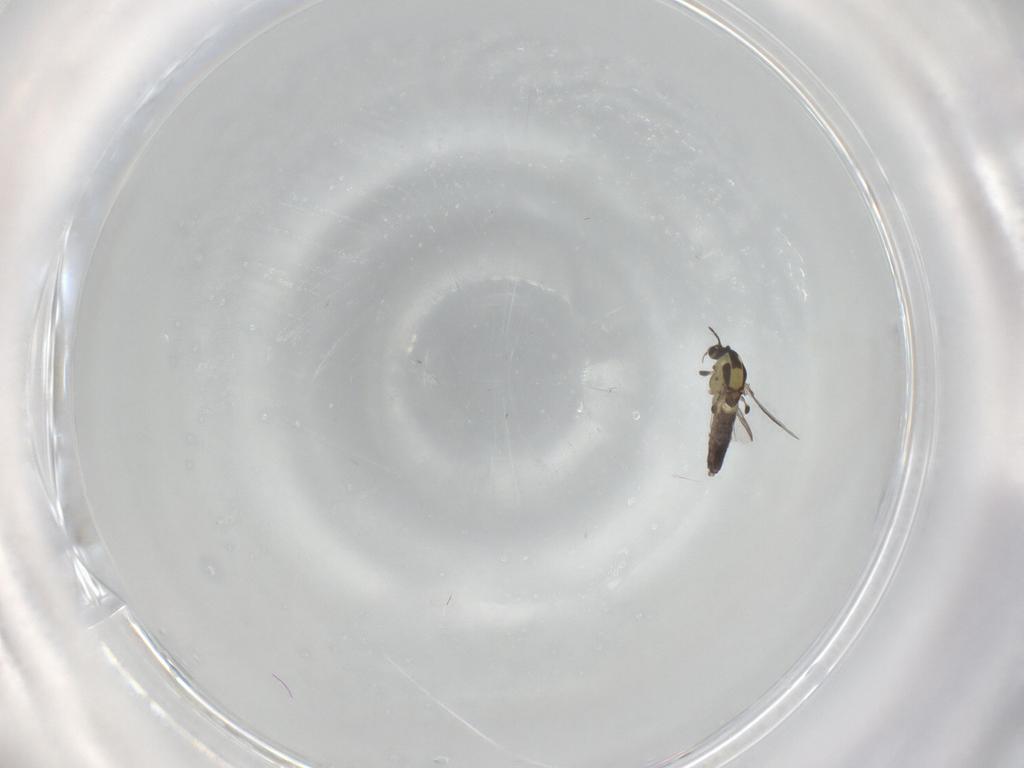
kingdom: Animalia
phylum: Arthropoda
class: Insecta
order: Diptera
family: Chironomidae
